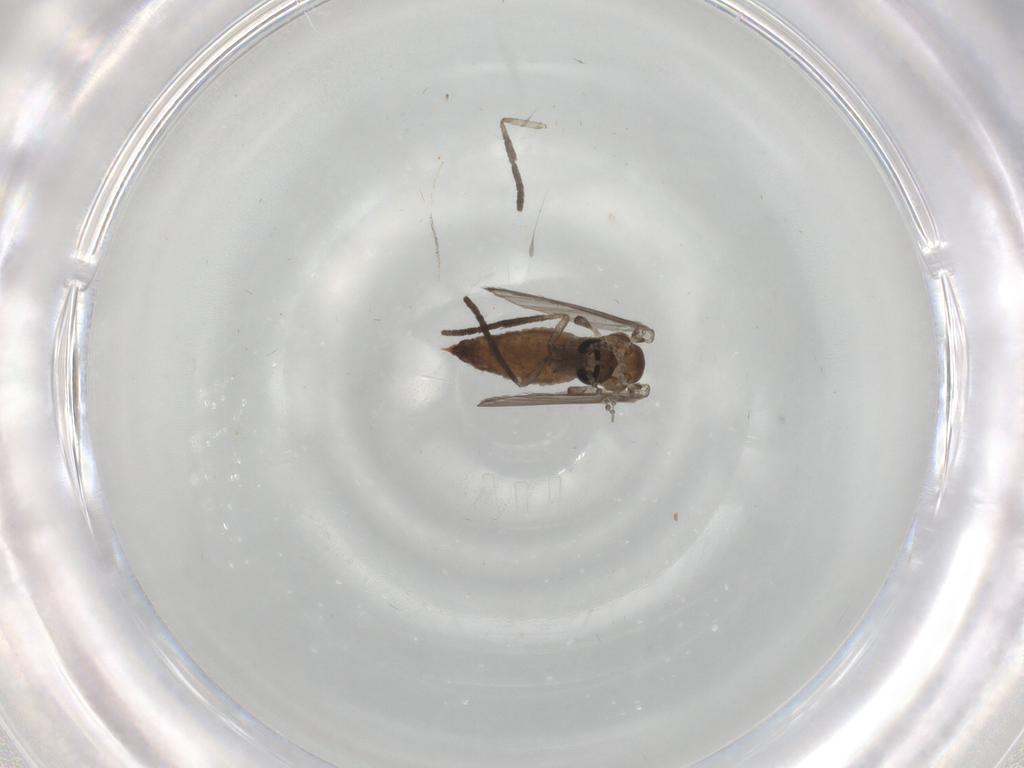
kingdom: Animalia
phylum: Arthropoda
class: Insecta
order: Diptera
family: Psychodidae
